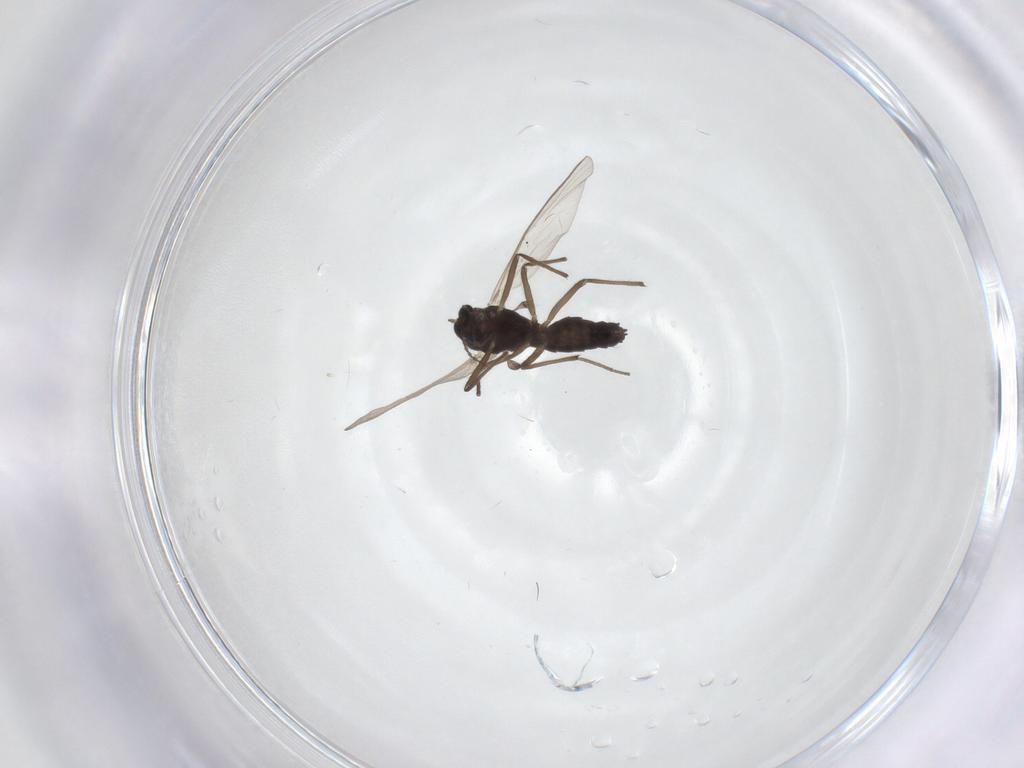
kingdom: Animalia
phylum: Arthropoda
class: Insecta
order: Diptera
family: Chironomidae
